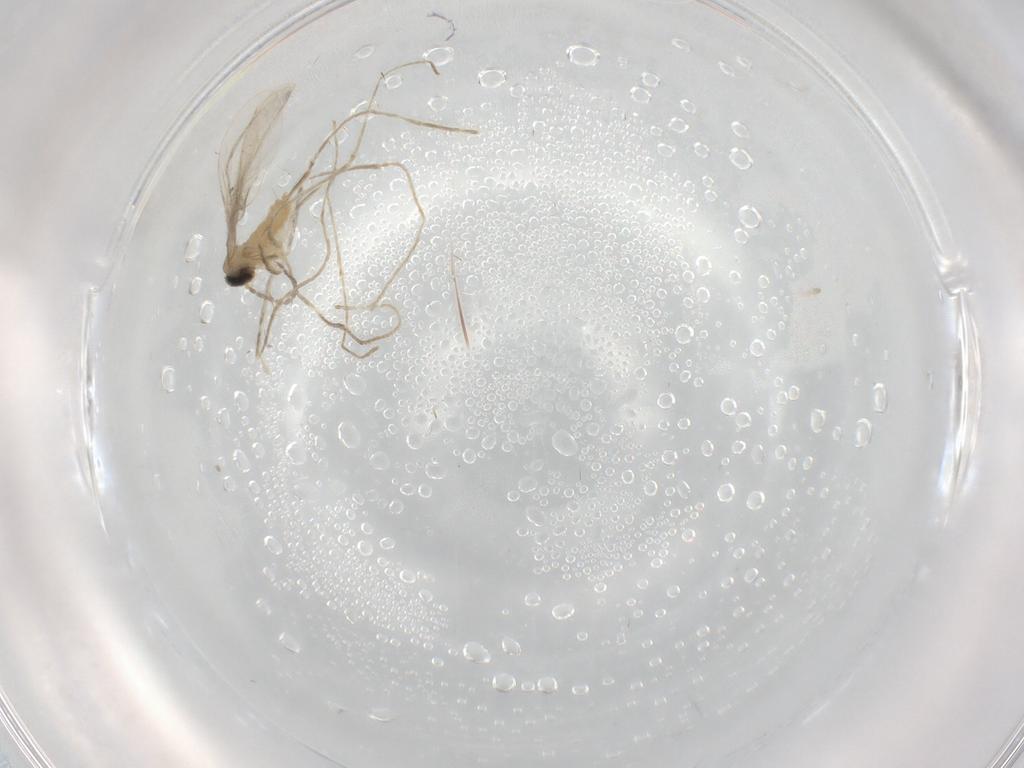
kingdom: Animalia
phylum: Arthropoda
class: Insecta
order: Diptera
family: Cecidomyiidae
